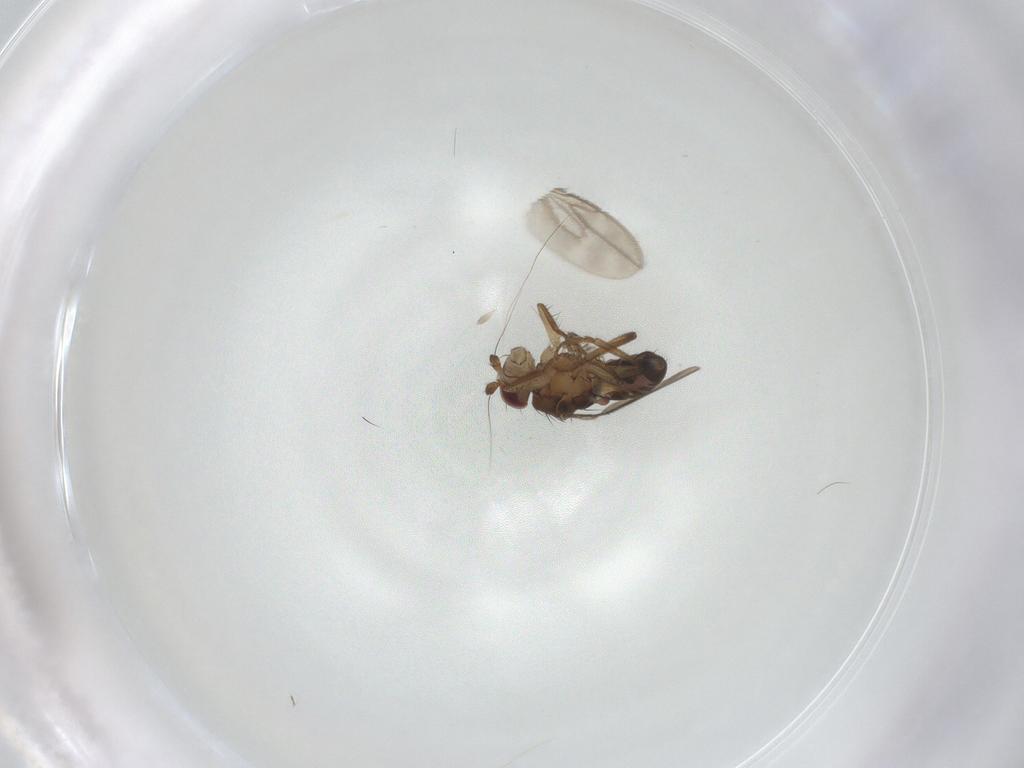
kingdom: Animalia
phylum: Arthropoda
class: Insecta
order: Diptera
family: Sphaeroceridae
